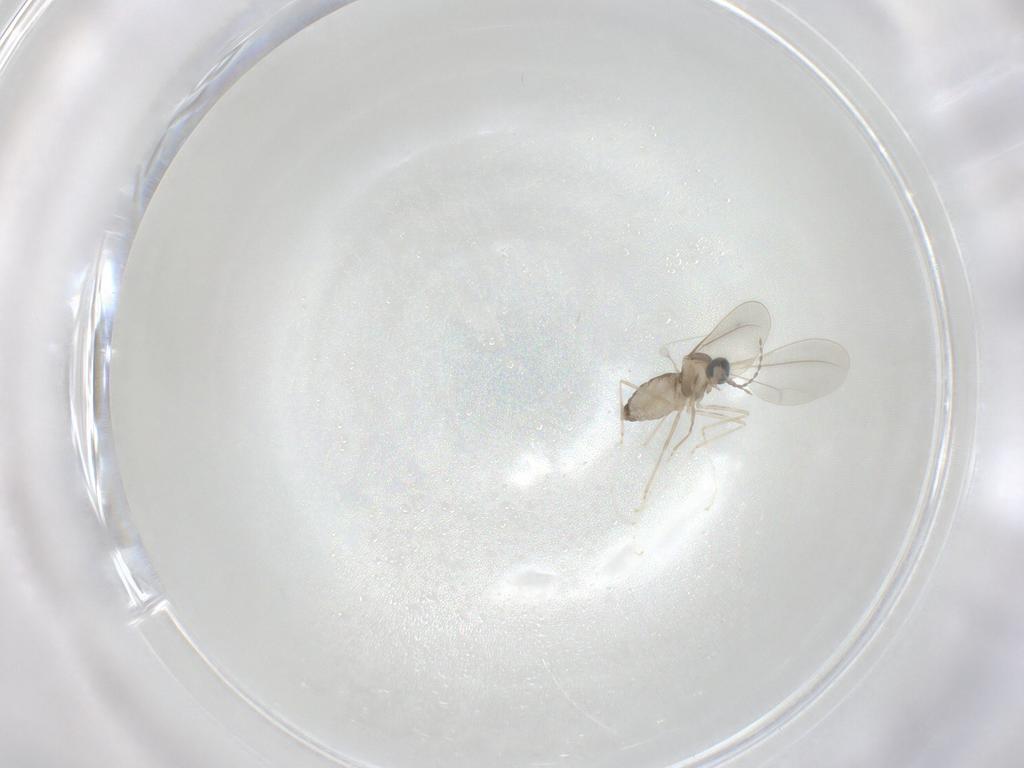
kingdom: Animalia
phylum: Arthropoda
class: Insecta
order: Diptera
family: Cecidomyiidae
